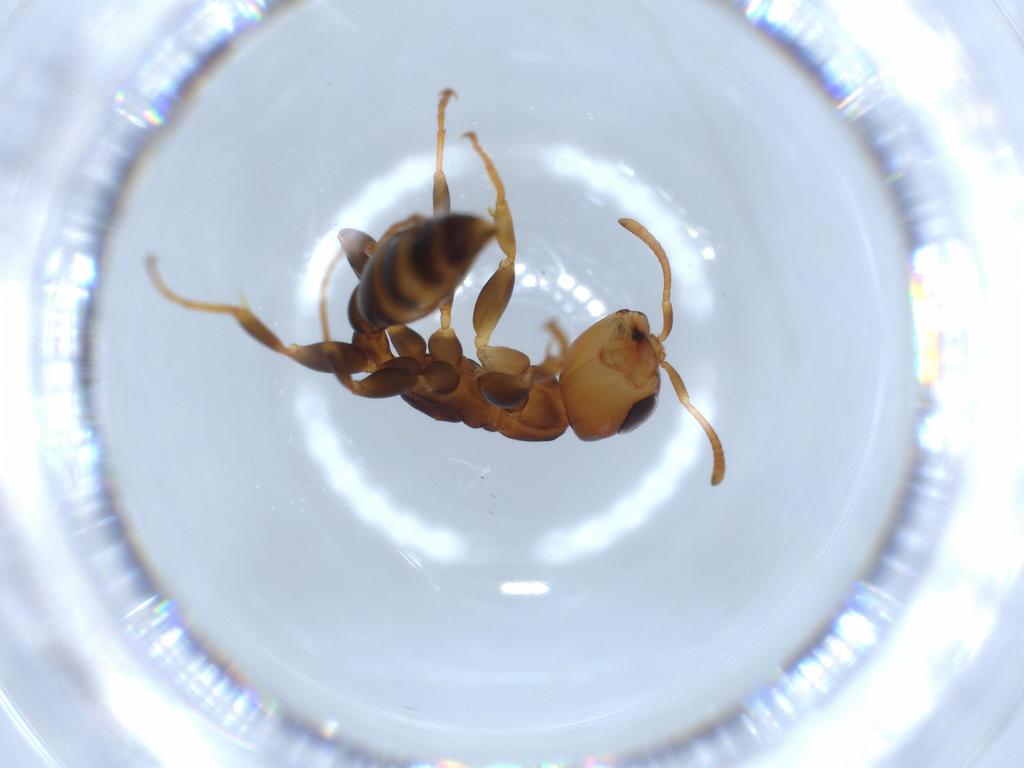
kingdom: Animalia
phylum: Arthropoda
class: Insecta
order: Hymenoptera
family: Formicidae
